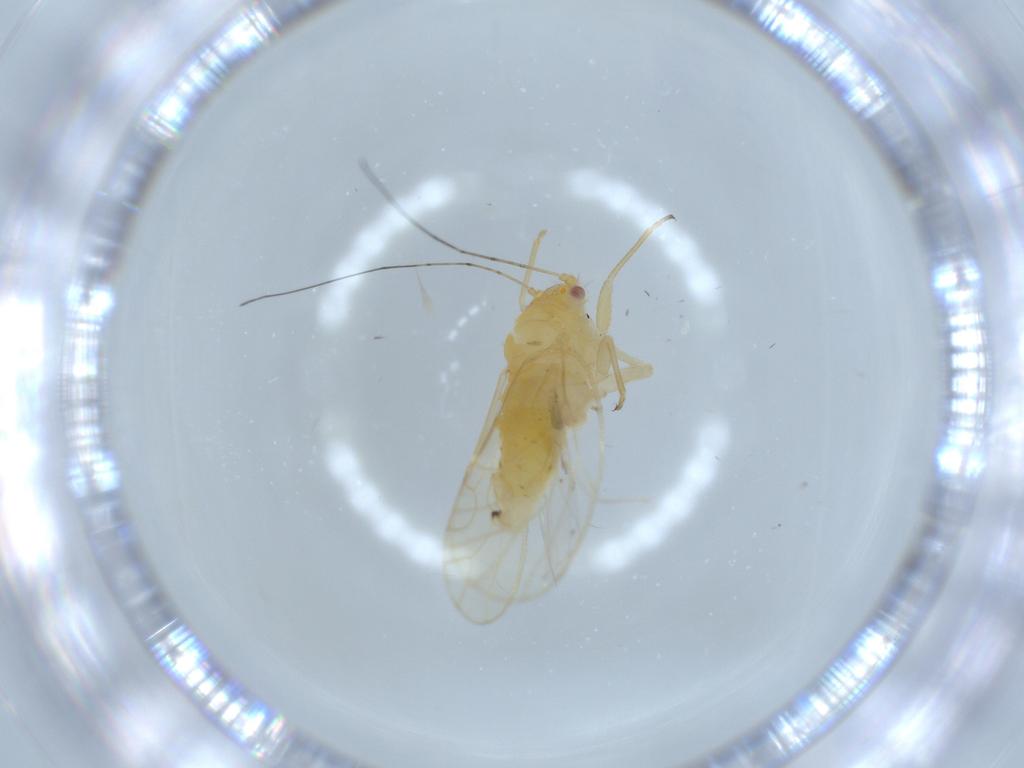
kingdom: Animalia
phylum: Arthropoda
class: Insecta
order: Hemiptera
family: Psyllidae
